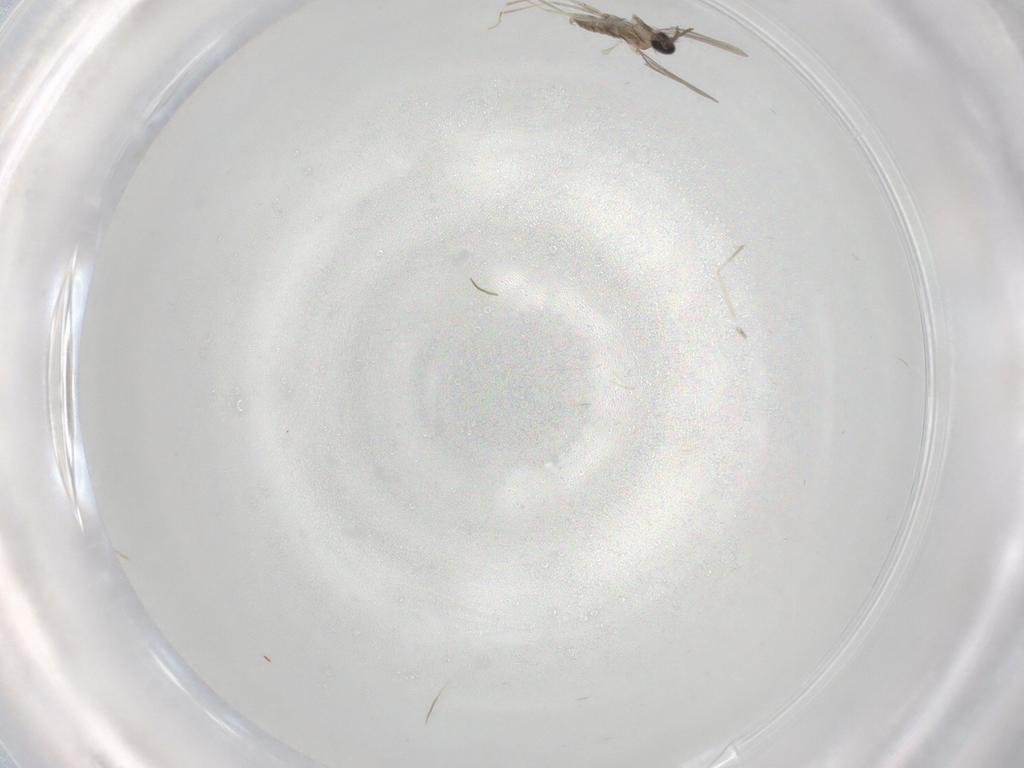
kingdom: Animalia
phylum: Arthropoda
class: Insecta
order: Diptera
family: Cecidomyiidae
